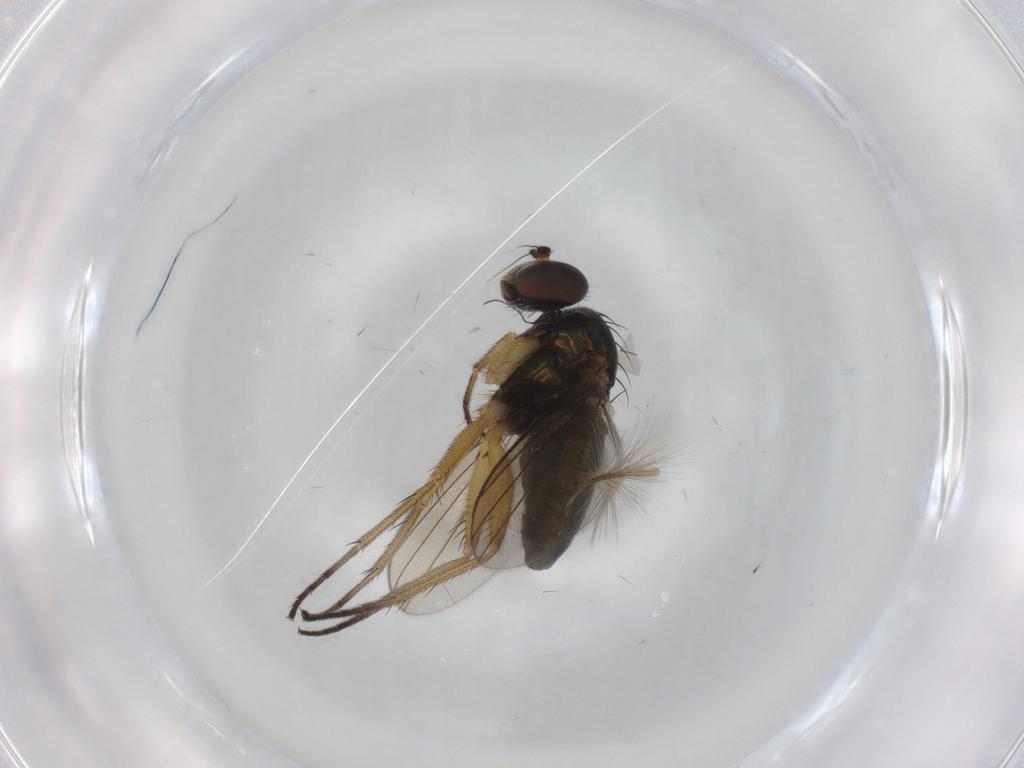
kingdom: Animalia
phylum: Arthropoda
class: Insecta
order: Diptera
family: Dolichopodidae
